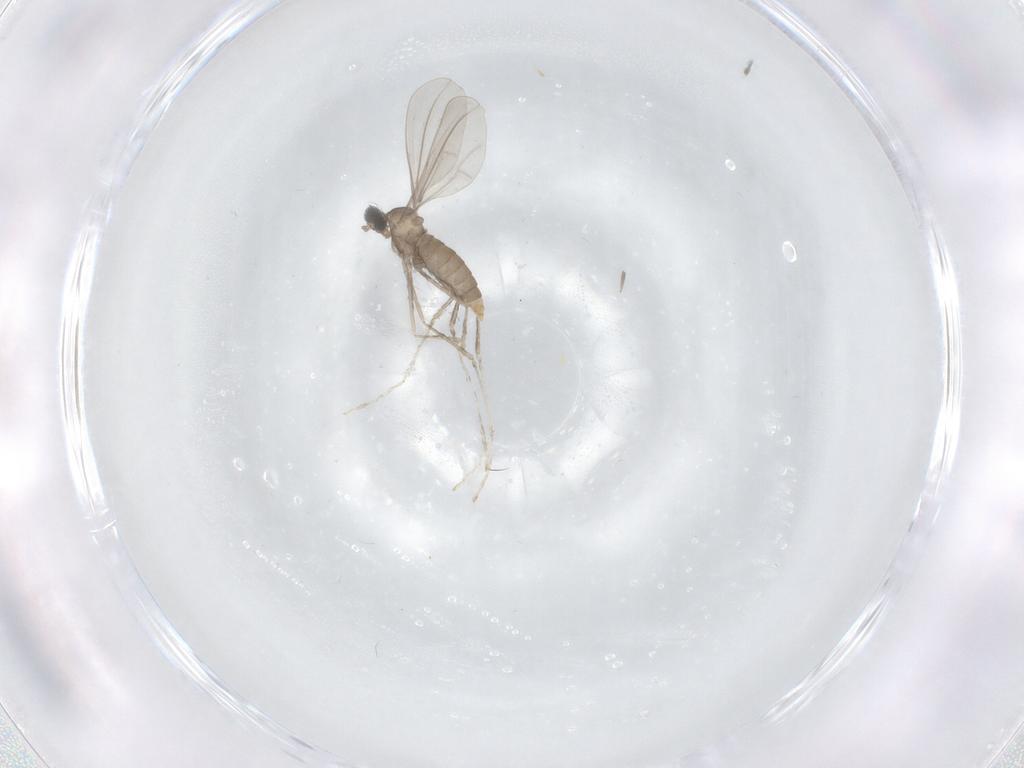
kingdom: Animalia
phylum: Arthropoda
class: Insecta
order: Diptera
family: Cecidomyiidae
